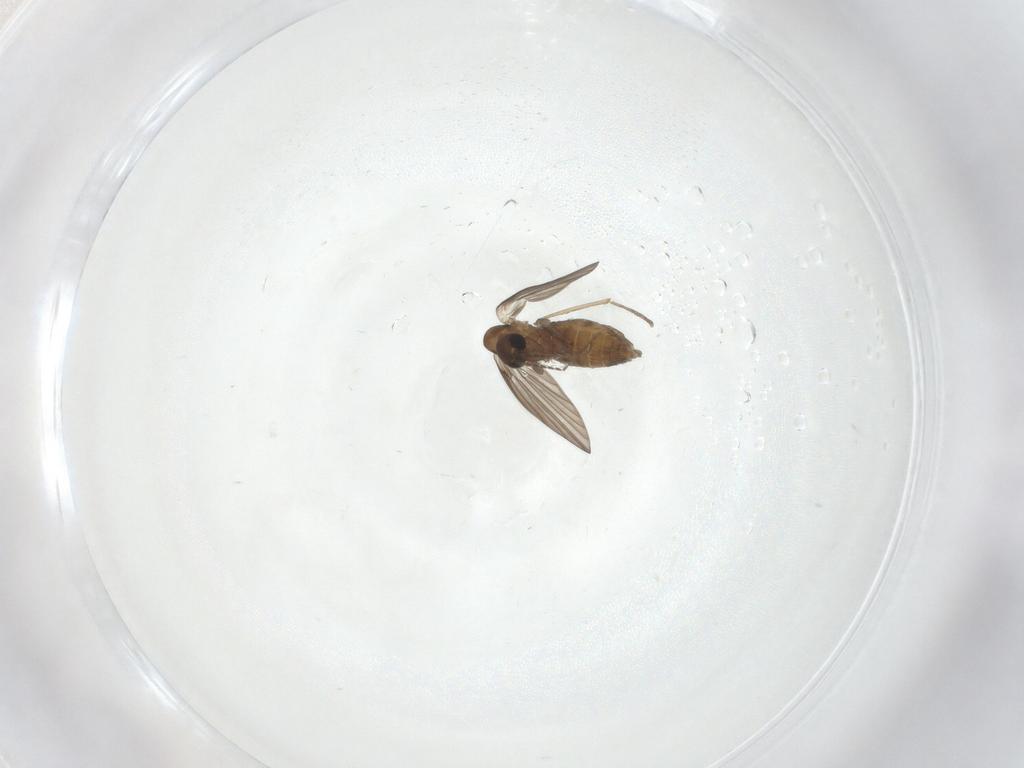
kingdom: Animalia
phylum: Arthropoda
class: Insecta
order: Diptera
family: Psychodidae
